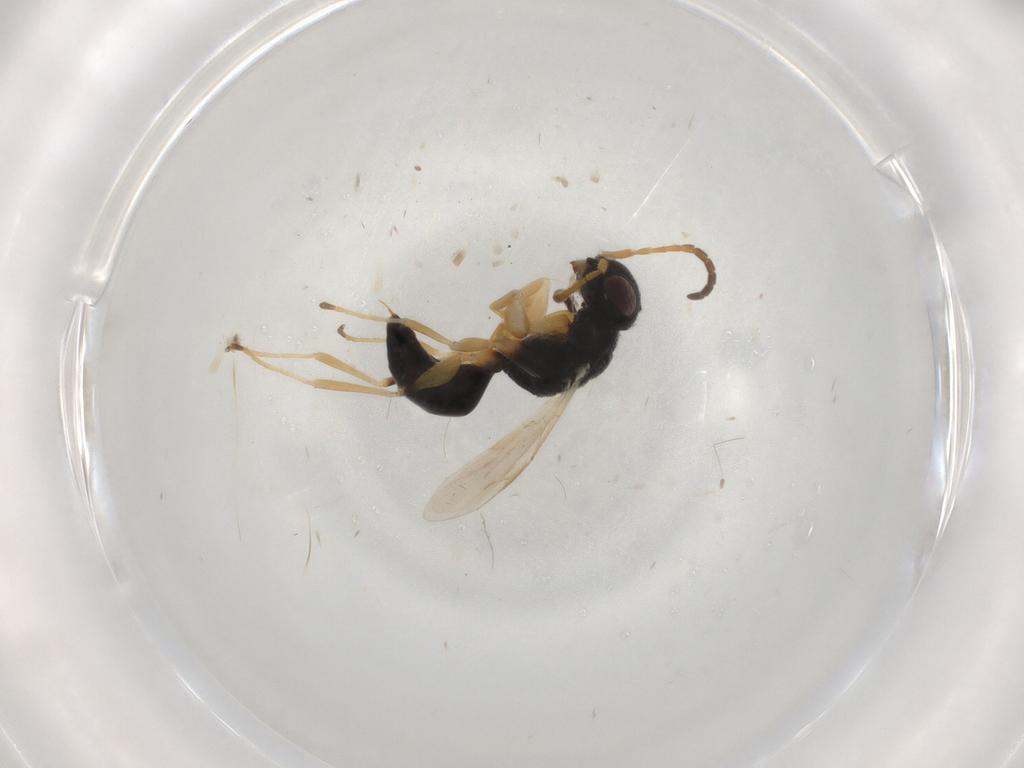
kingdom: Animalia
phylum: Arthropoda
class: Insecta
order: Hymenoptera
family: Dryinidae
